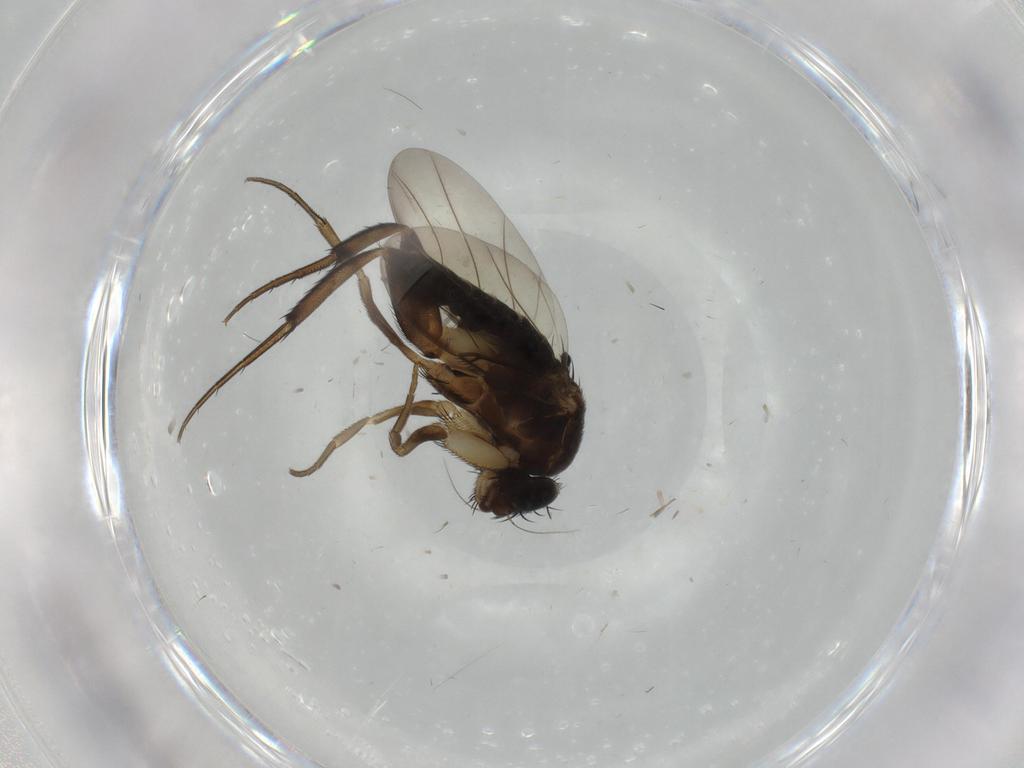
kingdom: Animalia
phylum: Arthropoda
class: Insecta
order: Diptera
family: Phoridae
